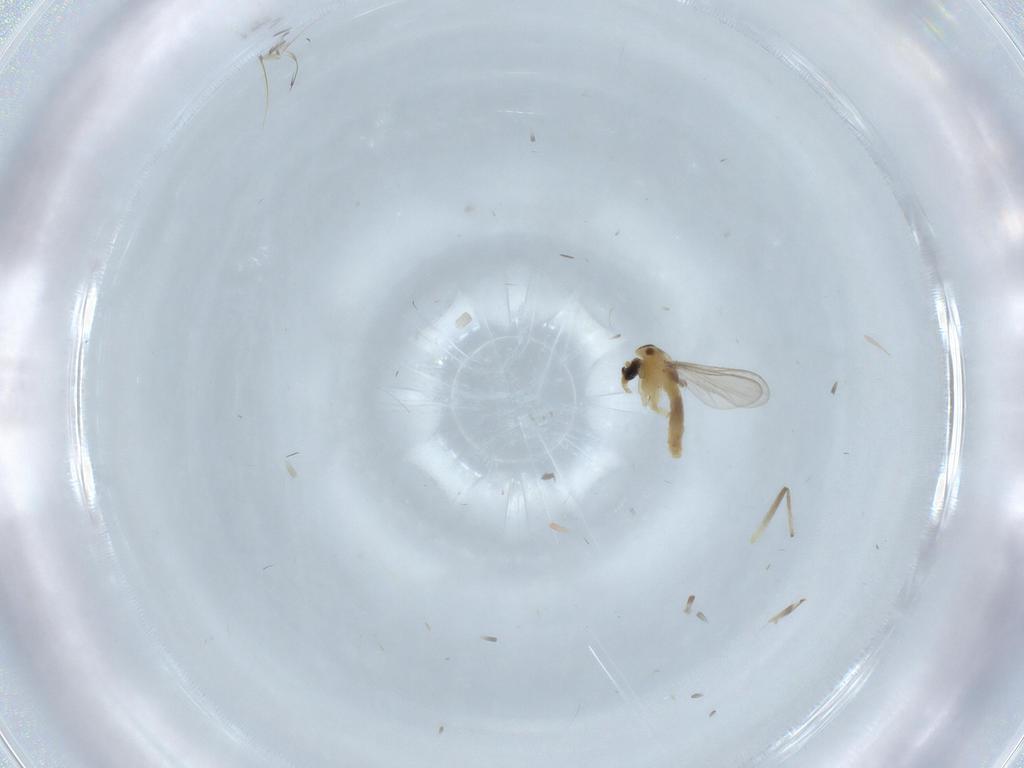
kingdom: Animalia
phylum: Arthropoda
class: Insecta
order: Diptera
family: Chironomidae
